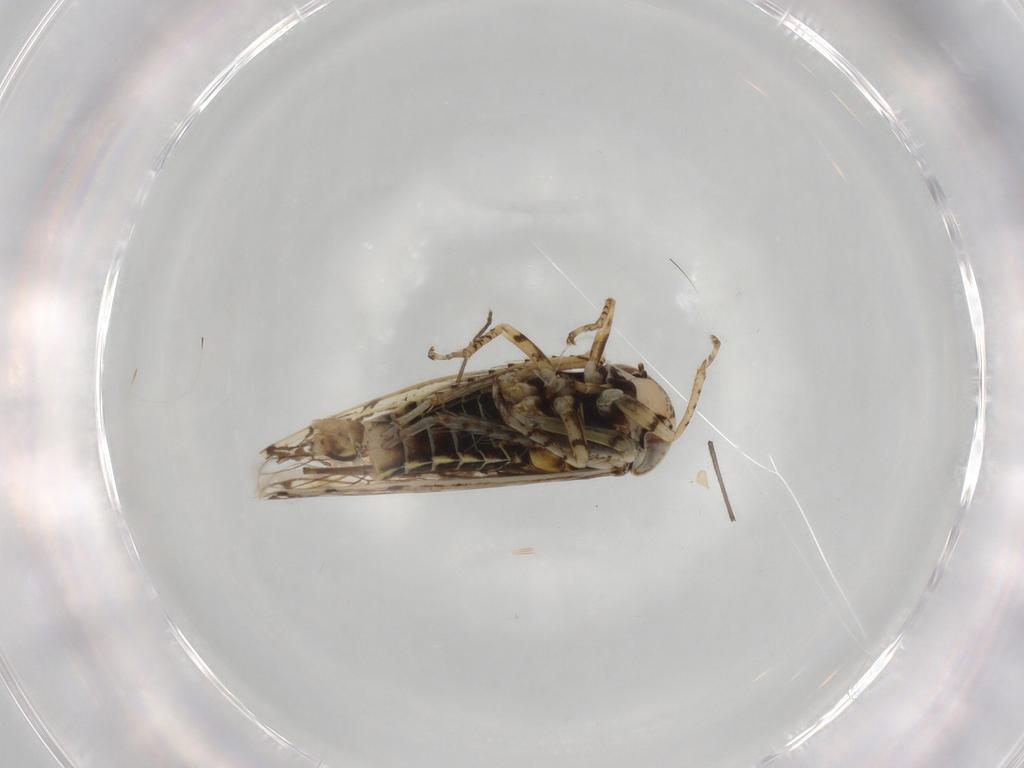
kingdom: Animalia
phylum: Arthropoda
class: Insecta
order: Hemiptera
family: Cicadellidae
